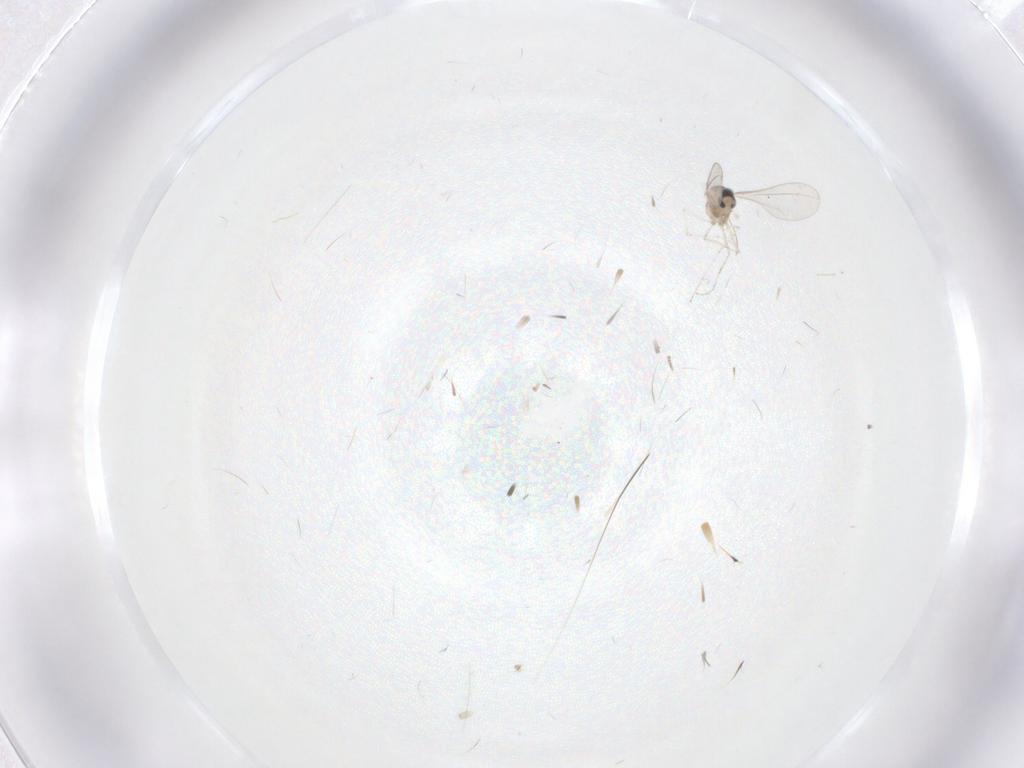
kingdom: Animalia
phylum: Arthropoda
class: Insecta
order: Diptera
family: Cecidomyiidae
